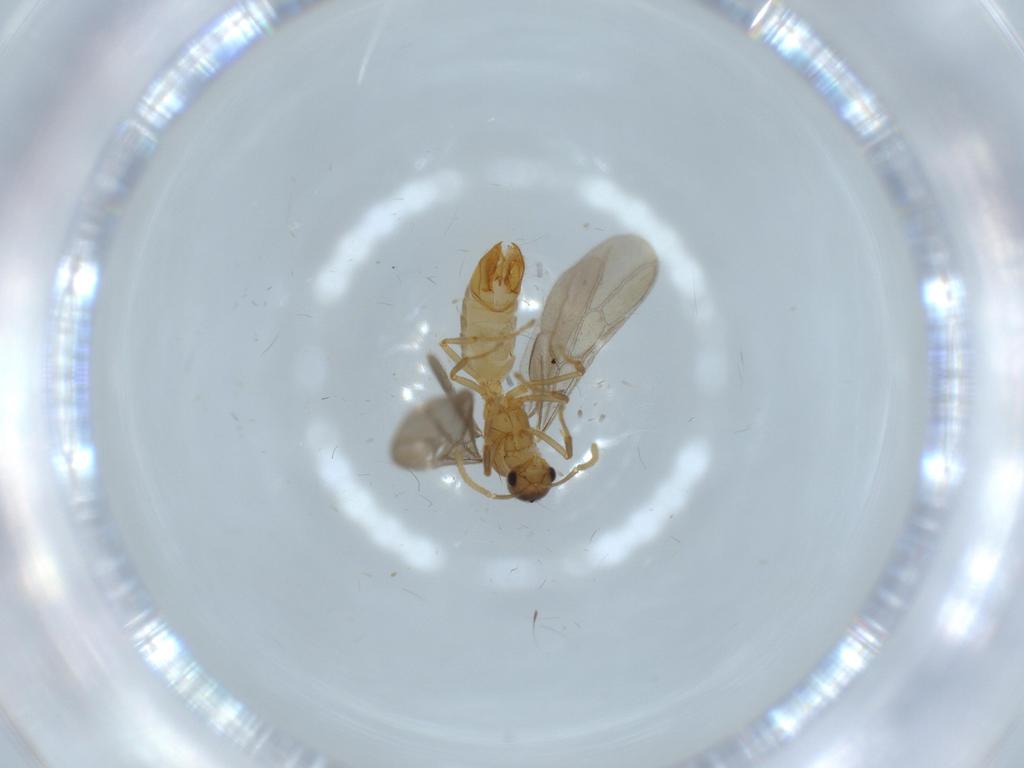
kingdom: Animalia
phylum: Arthropoda
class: Insecta
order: Hymenoptera
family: Formicidae
